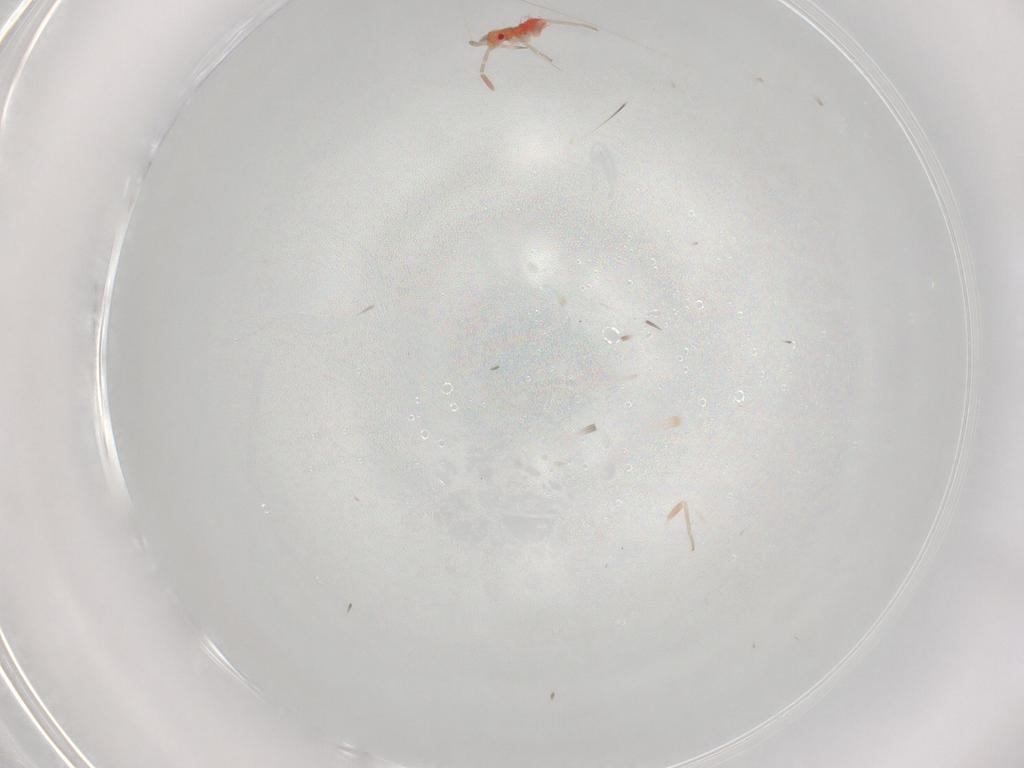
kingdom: Animalia
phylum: Arthropoda
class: Insecta
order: Hemiptera
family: Miridae
